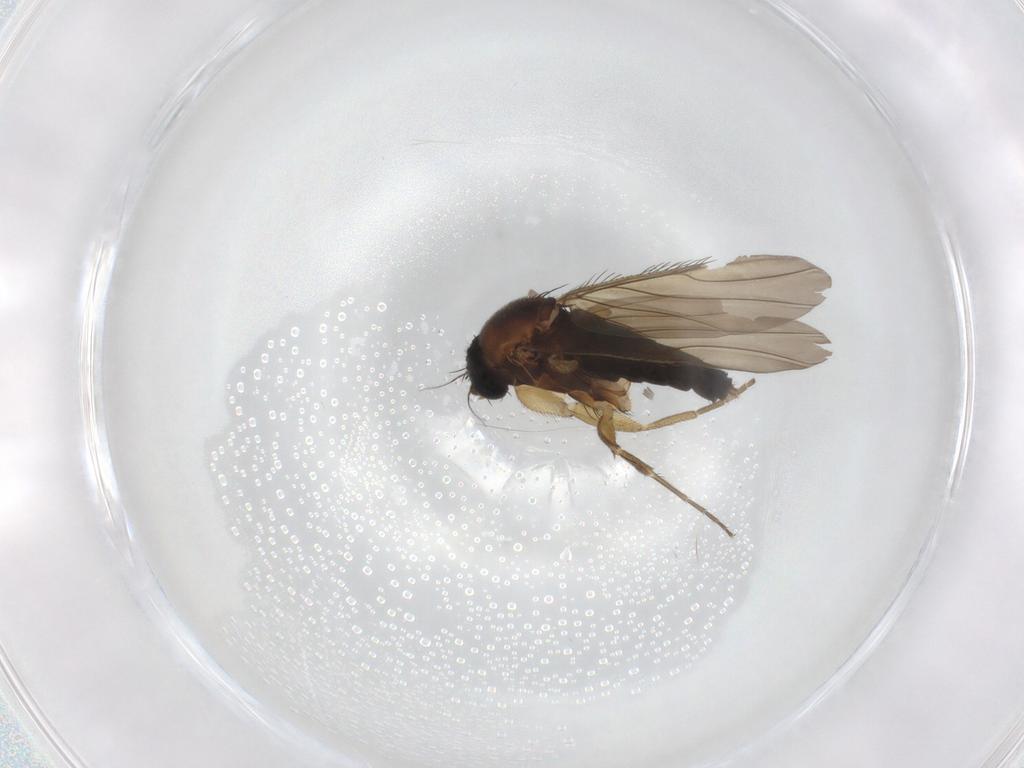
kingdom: Animalia
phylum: Arthropoda
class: Insecta
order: Diptera
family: Phoridae
